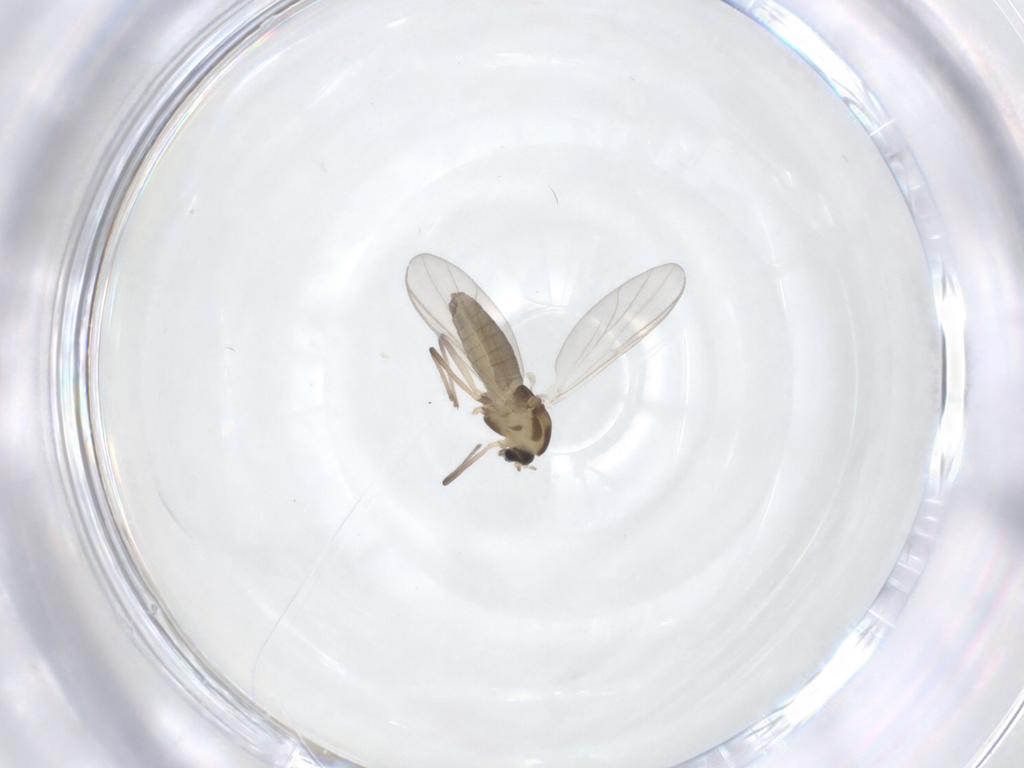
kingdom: Animalia
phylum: Arthropoda
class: Insecta
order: Diptera
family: Chironomidae
